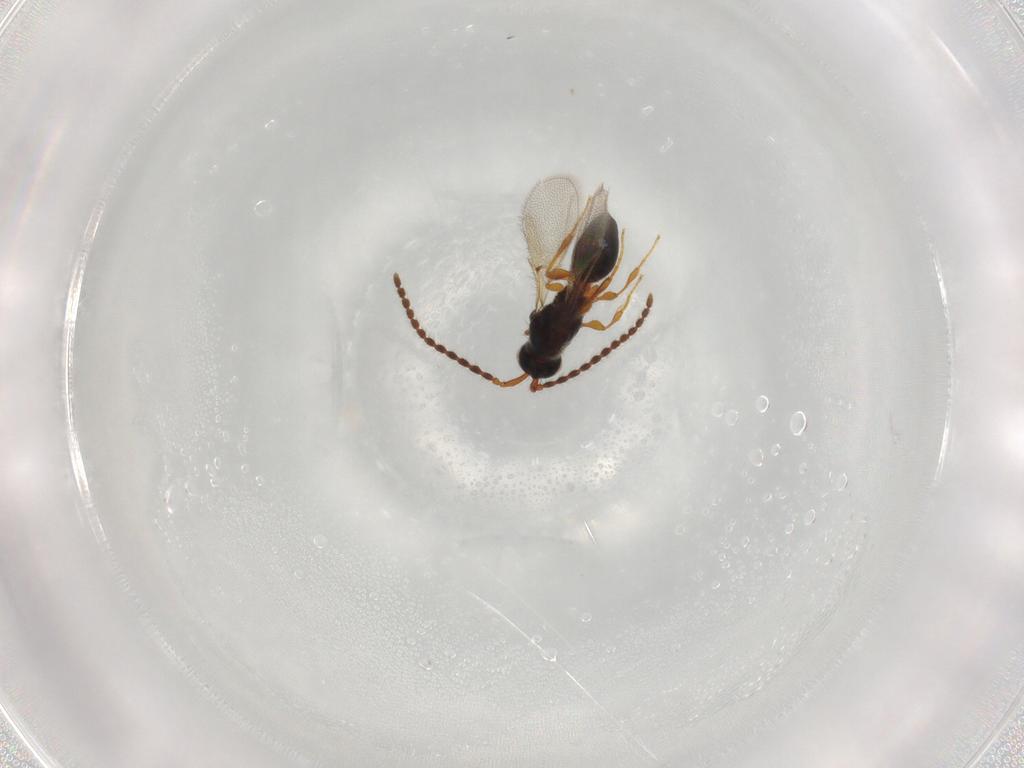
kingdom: Animalia
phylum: Arthropoda
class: Insecta
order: Hymenoptera
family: Diapriidae
